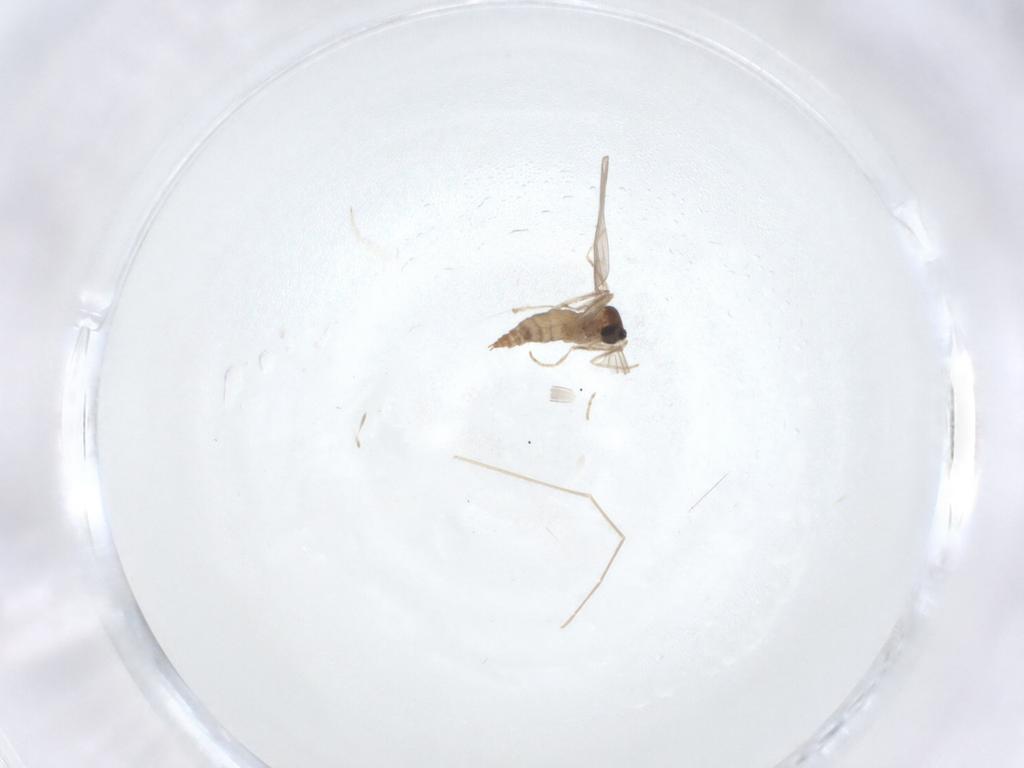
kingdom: Animalia
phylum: Arthropoda
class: Insecta
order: Diptera
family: Cecidomyiidae
